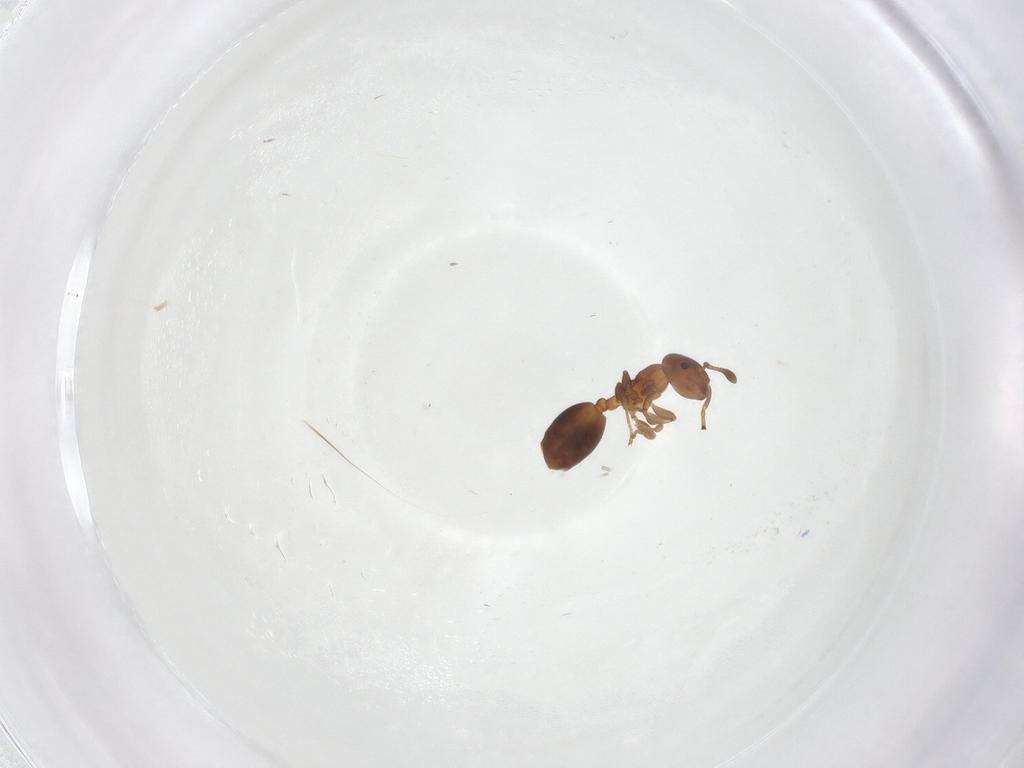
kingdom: Animalia
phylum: Arthropoda
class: Insecta
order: Hymenoptera
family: Formicidae
